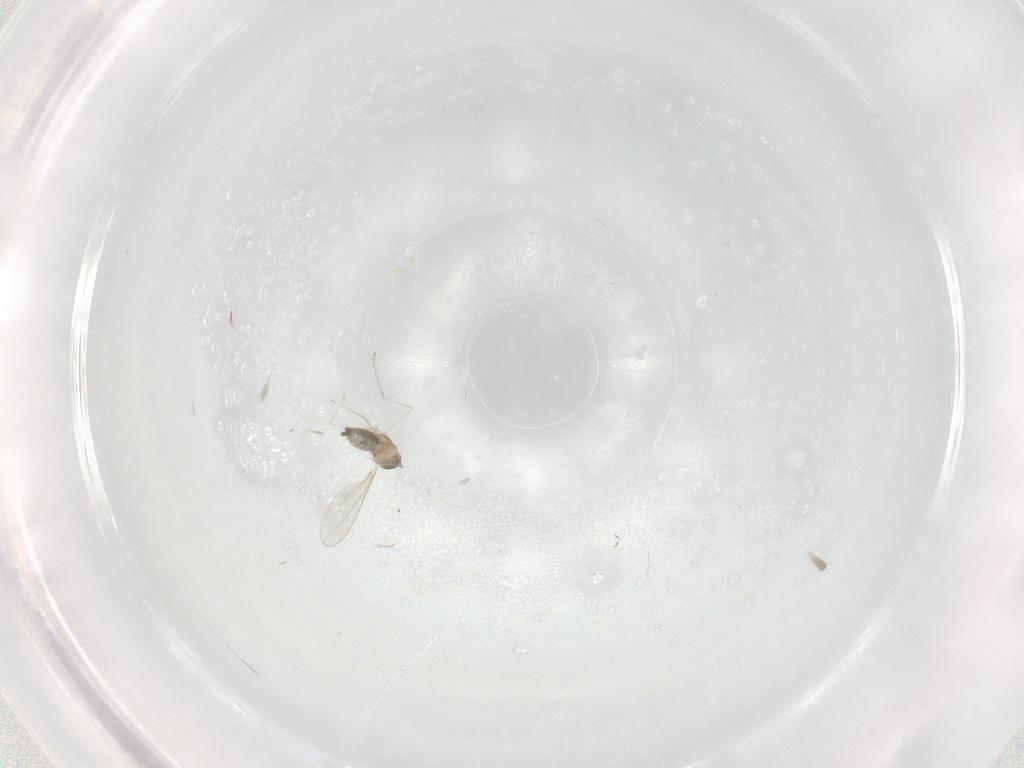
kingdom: Animalia
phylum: Arthropoda
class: Insecta
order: Diptera
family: Cecidomyiidae
